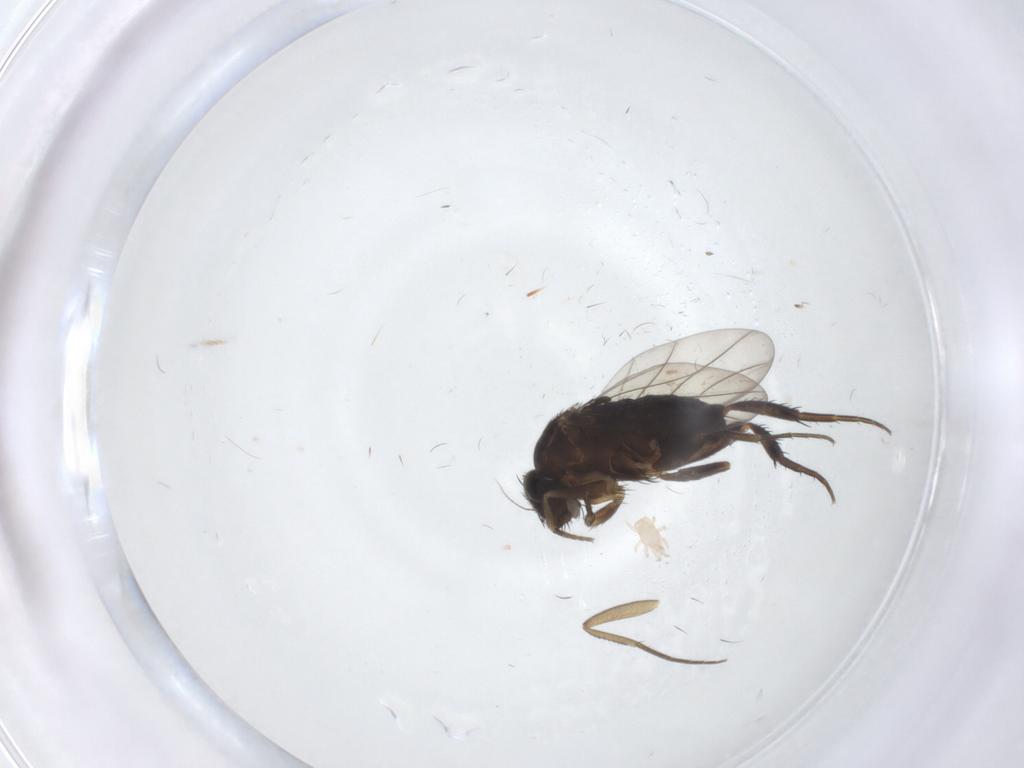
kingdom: Animalia
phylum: Arthropoda
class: Insecta
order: Diptera
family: Phoridae
